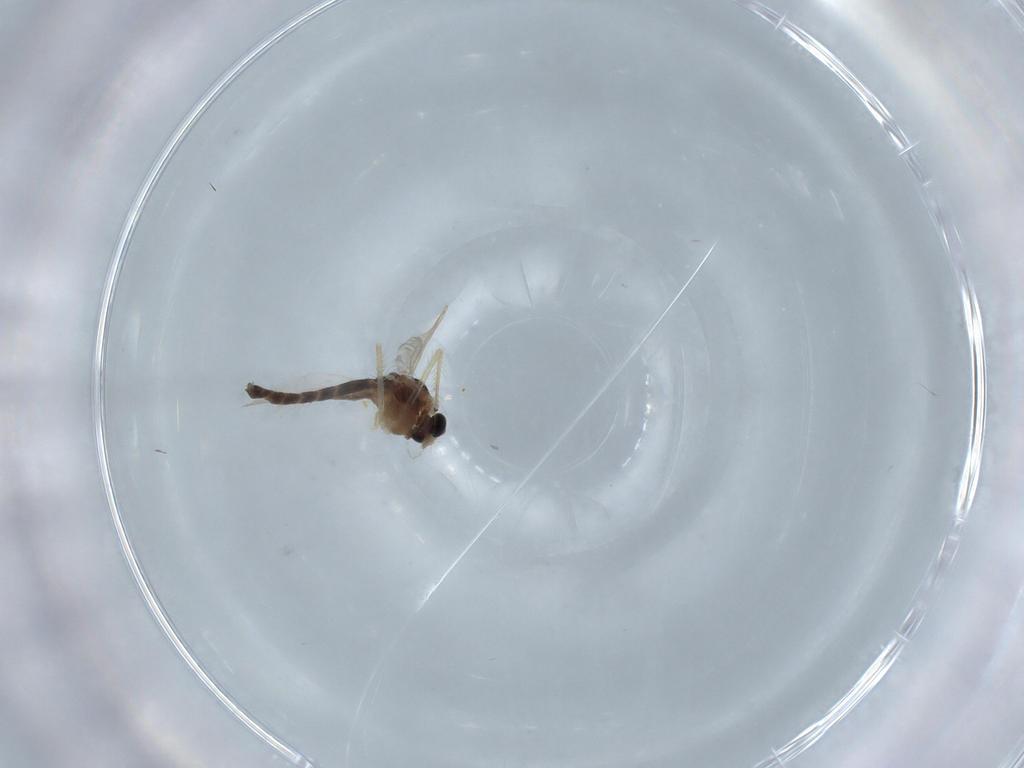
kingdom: Animalia
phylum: Arthropoda
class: Insecta
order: Diptera
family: Chironomidae
